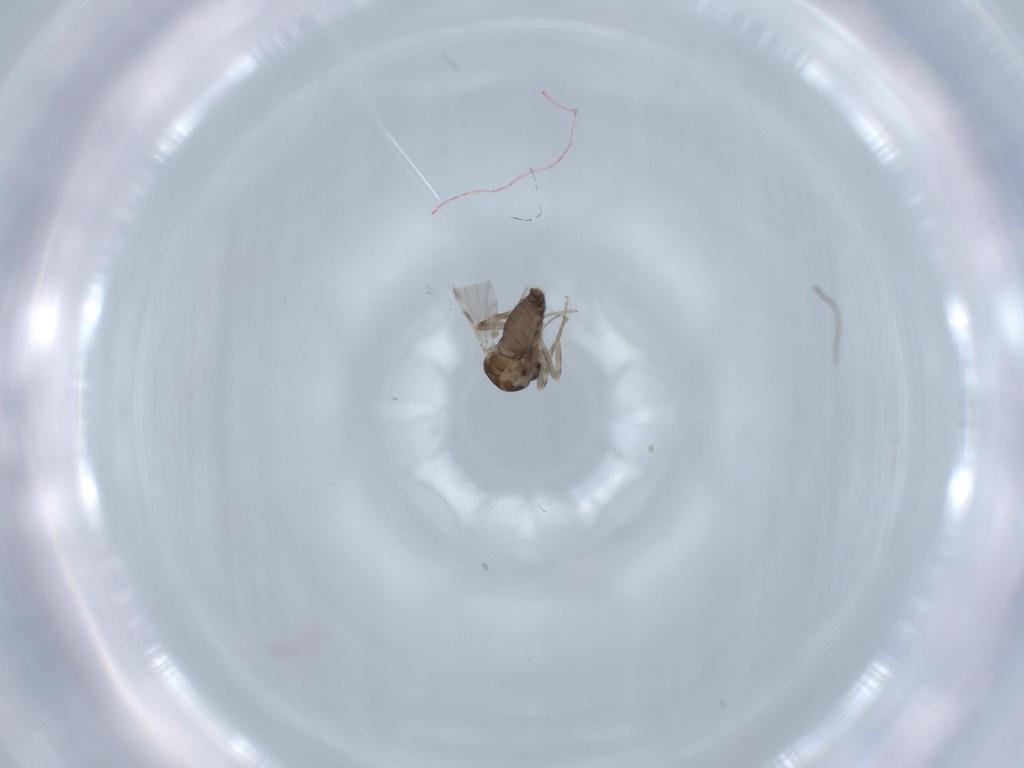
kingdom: Animalia
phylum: Arthropoda
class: Insecta
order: Diptera
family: Ceratopogonidae
